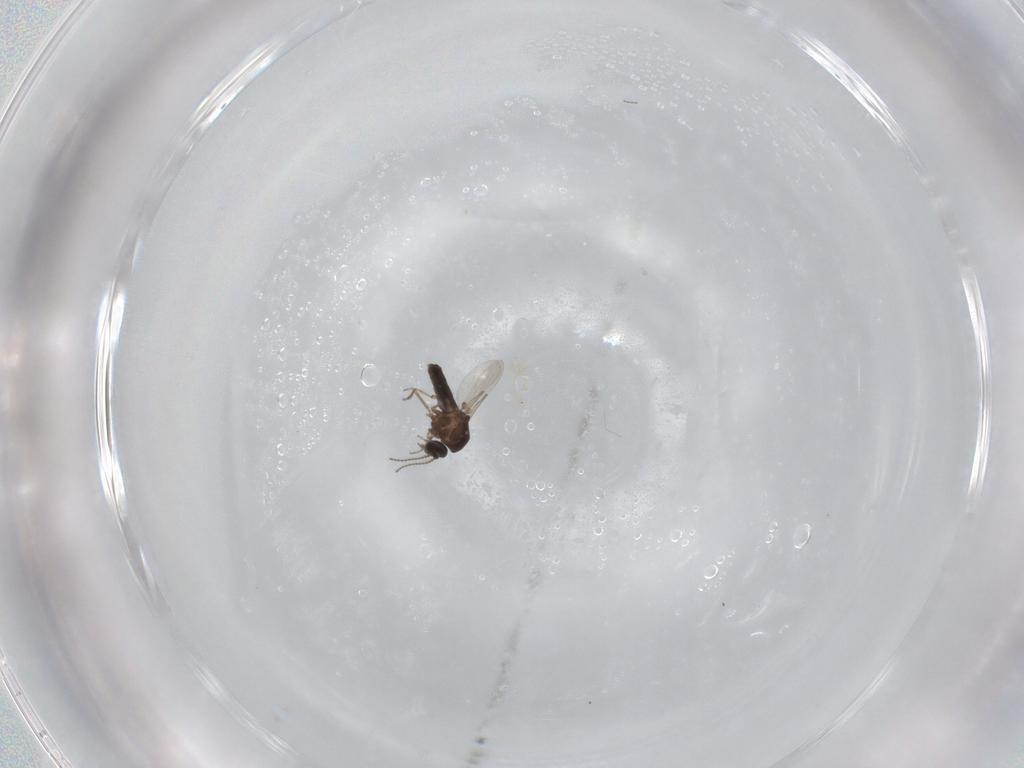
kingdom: Animalia
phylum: Arthropoda
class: Insecta
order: Diptera
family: Ceratopogonidae
